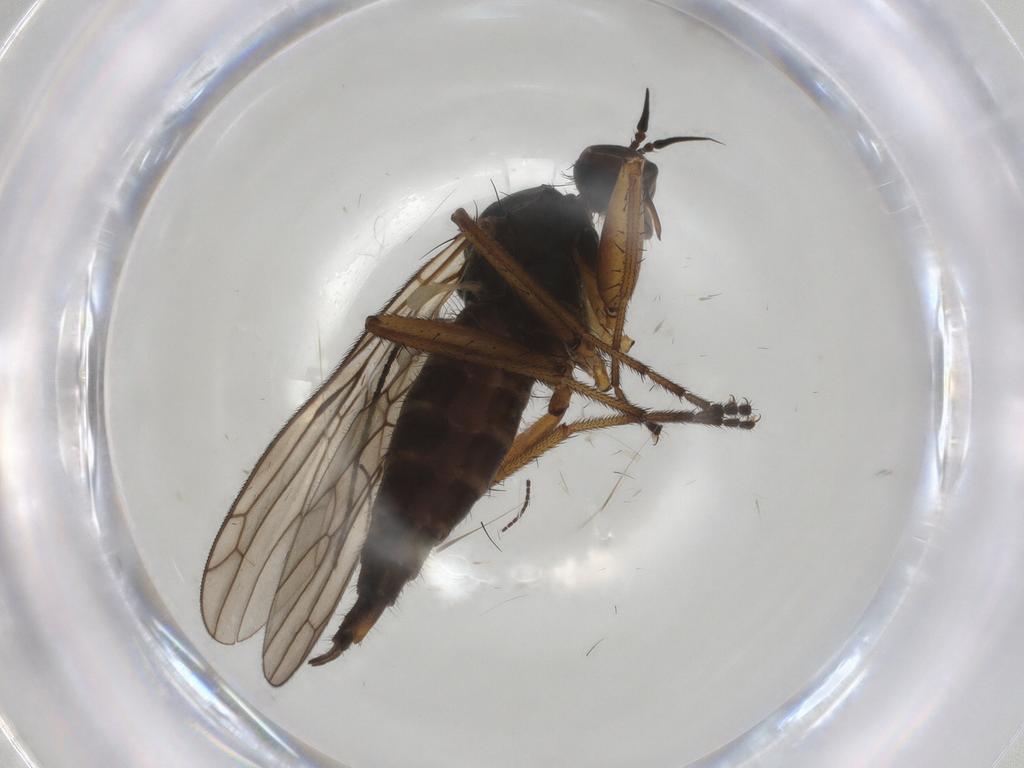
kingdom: Animalia
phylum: Arthropoda
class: Insecta
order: Diptera
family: Empididae
